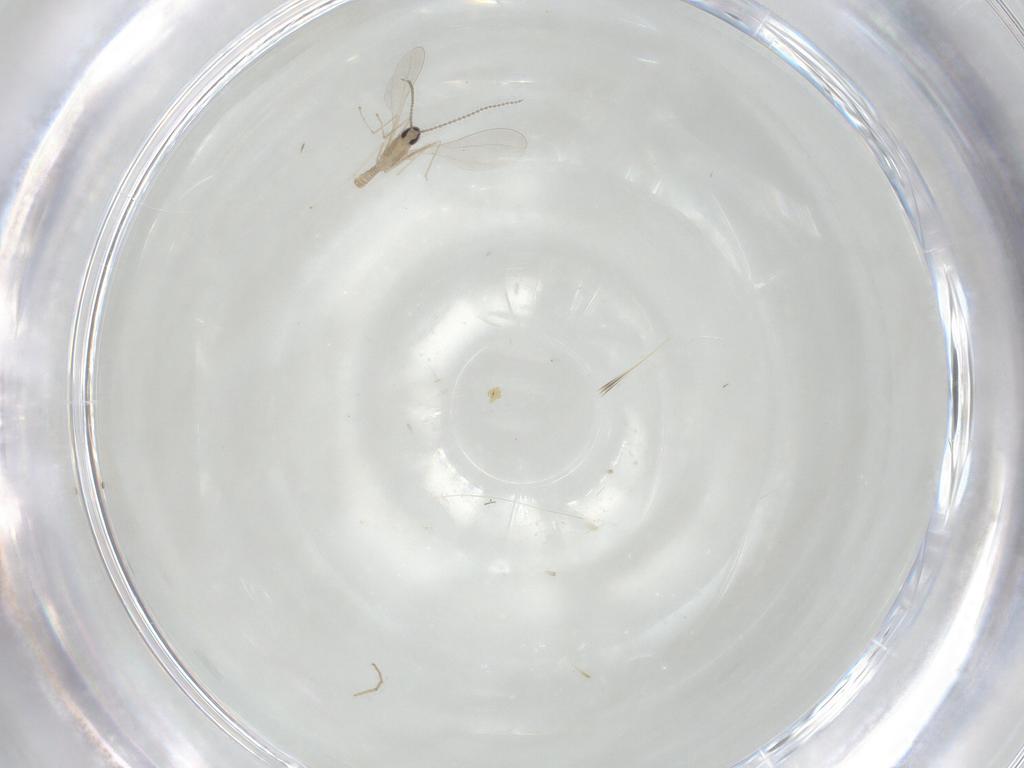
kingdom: Animalia
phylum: Arthropoda
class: Insecta
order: Diptera
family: Cecidomyiidae
